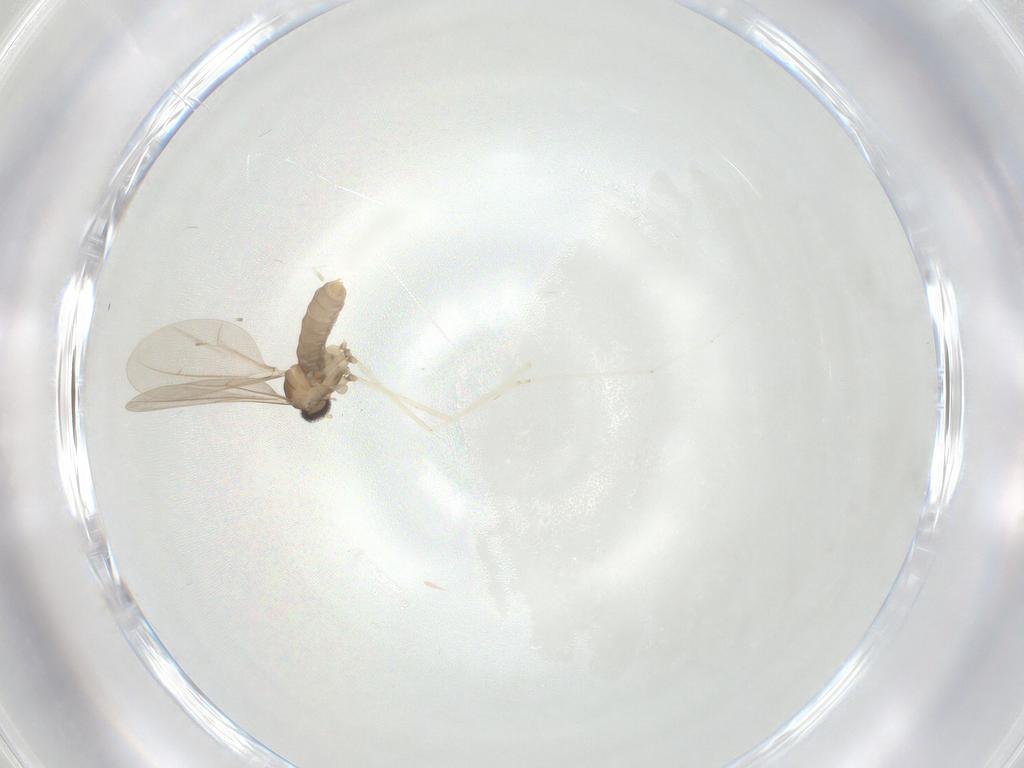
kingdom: Animalia
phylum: Arthropoda
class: Insecta
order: Diptera
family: Cecidomyiidae
